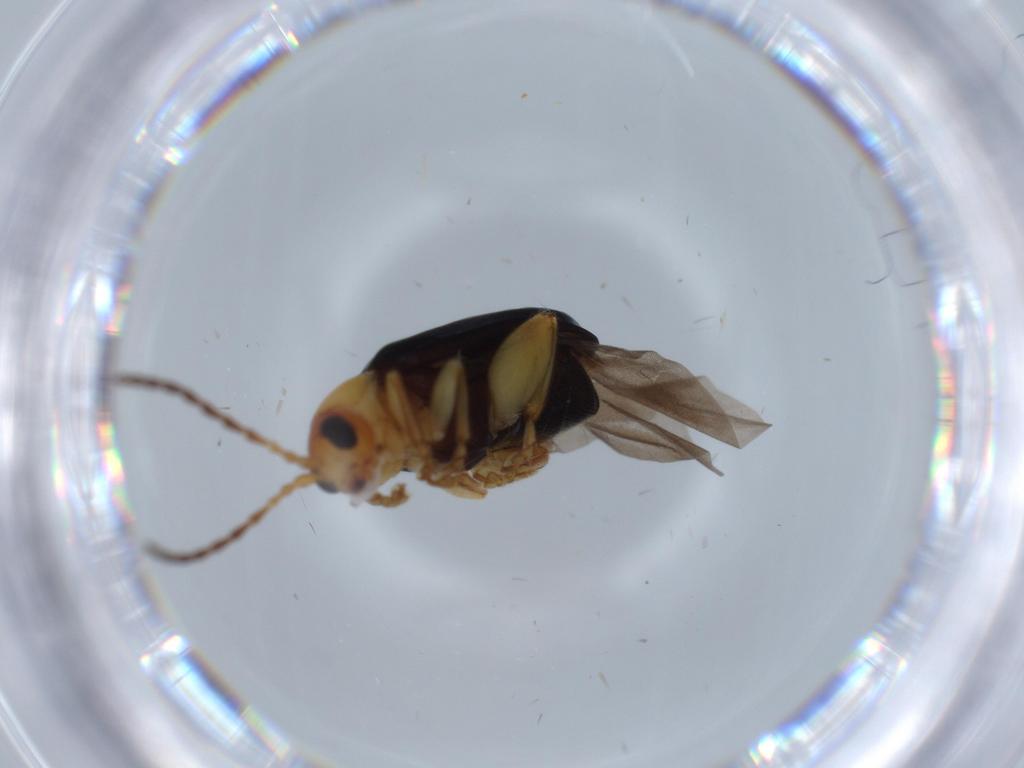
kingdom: Animalia
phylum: Arthropoda
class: Insecta
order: Coleoptera
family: Chrysomelidae
